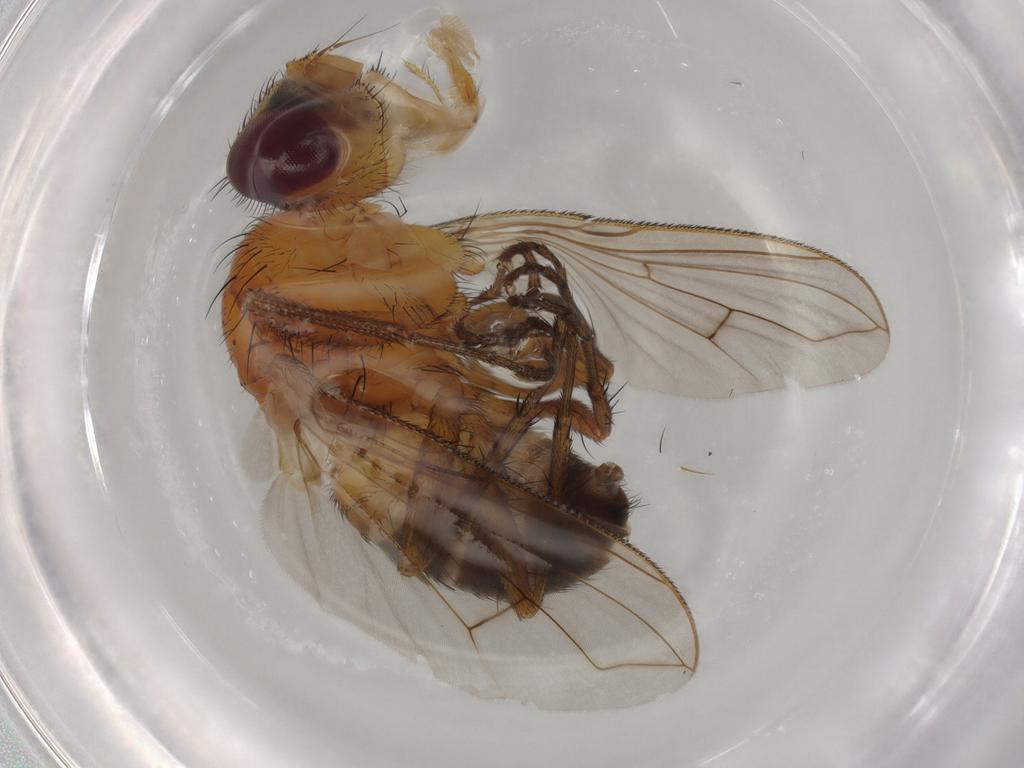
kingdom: Animalia
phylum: Arthropoda
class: Insecta
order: Diptera
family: Tachinidae
